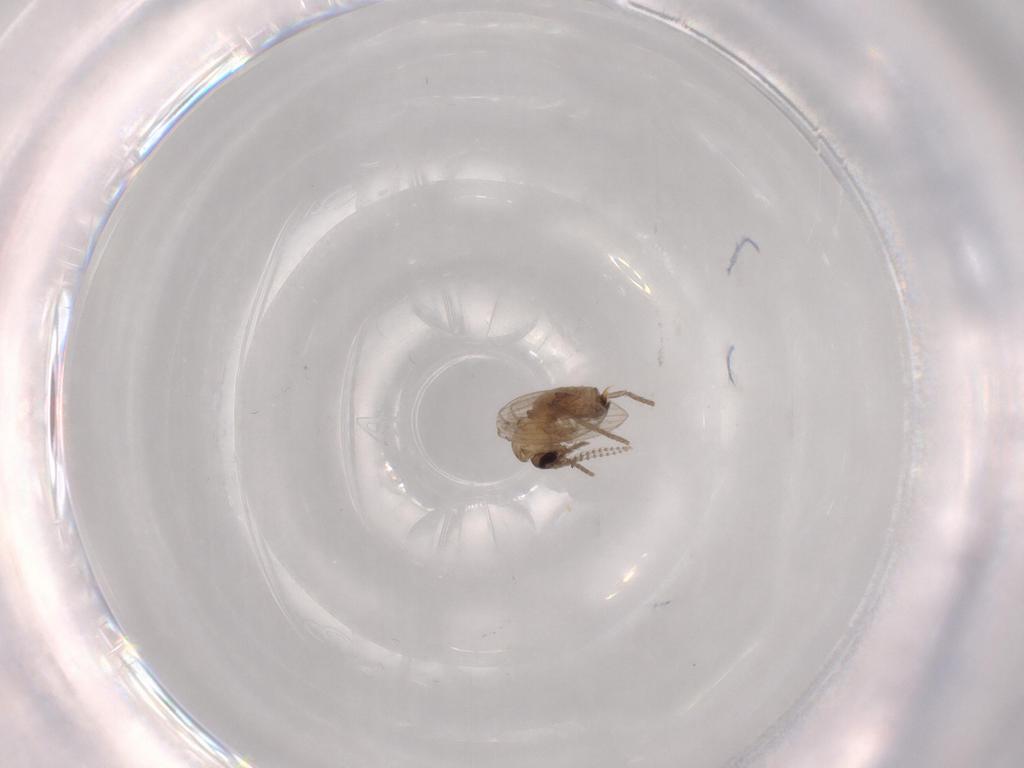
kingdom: Animalia
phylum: Arthropoda
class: Insecta
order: Diptera
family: Psychodidae
